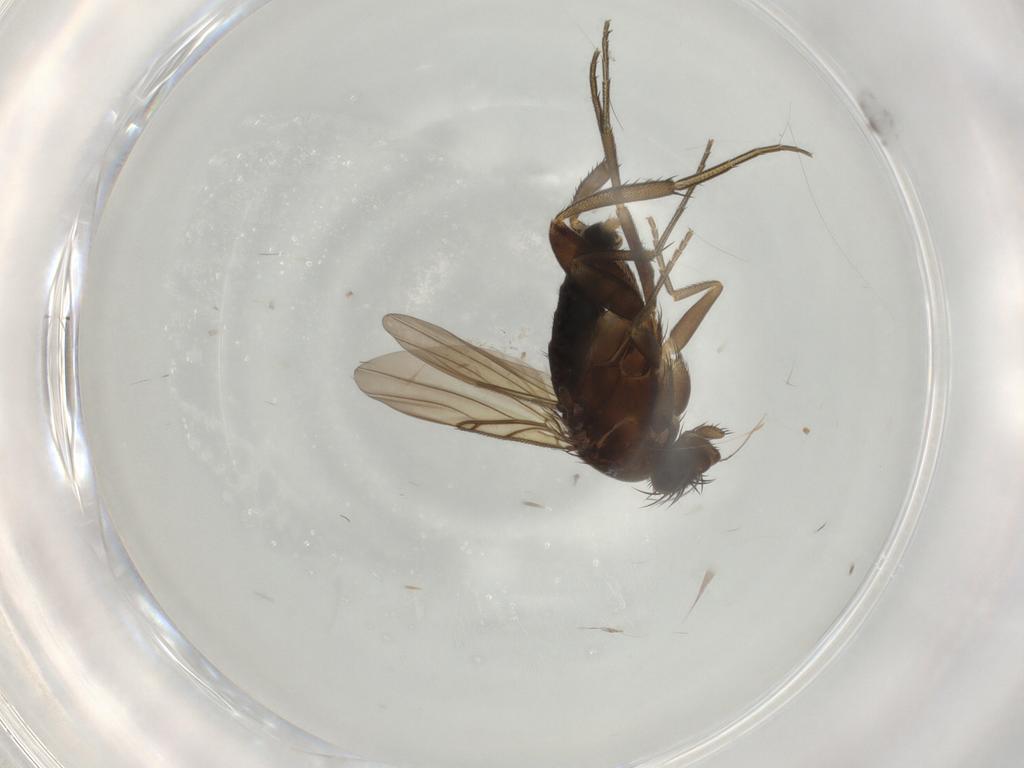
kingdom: Animalia
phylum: Arthropoda
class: Insecta
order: Diptera
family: Phoridae
